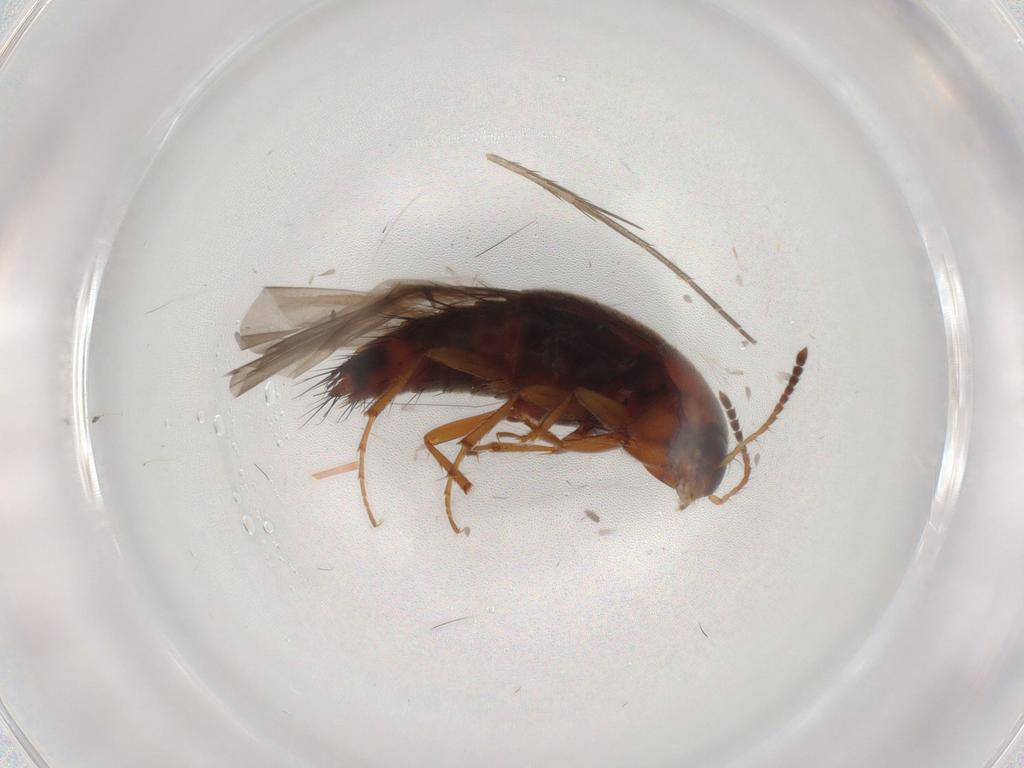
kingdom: Animalia
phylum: Arthropoda
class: Insecta
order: Coleoptera
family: Staphylinidae
